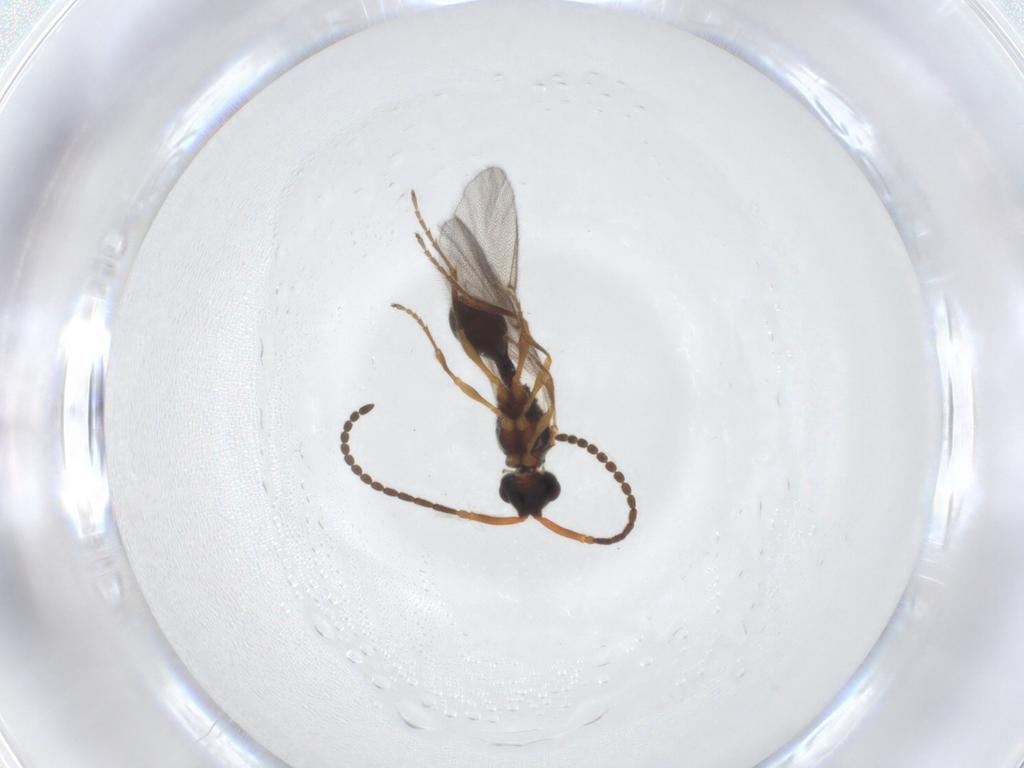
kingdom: Animalia
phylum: Arthropoda
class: Insecta
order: Hymenoptera
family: Diapriidae
